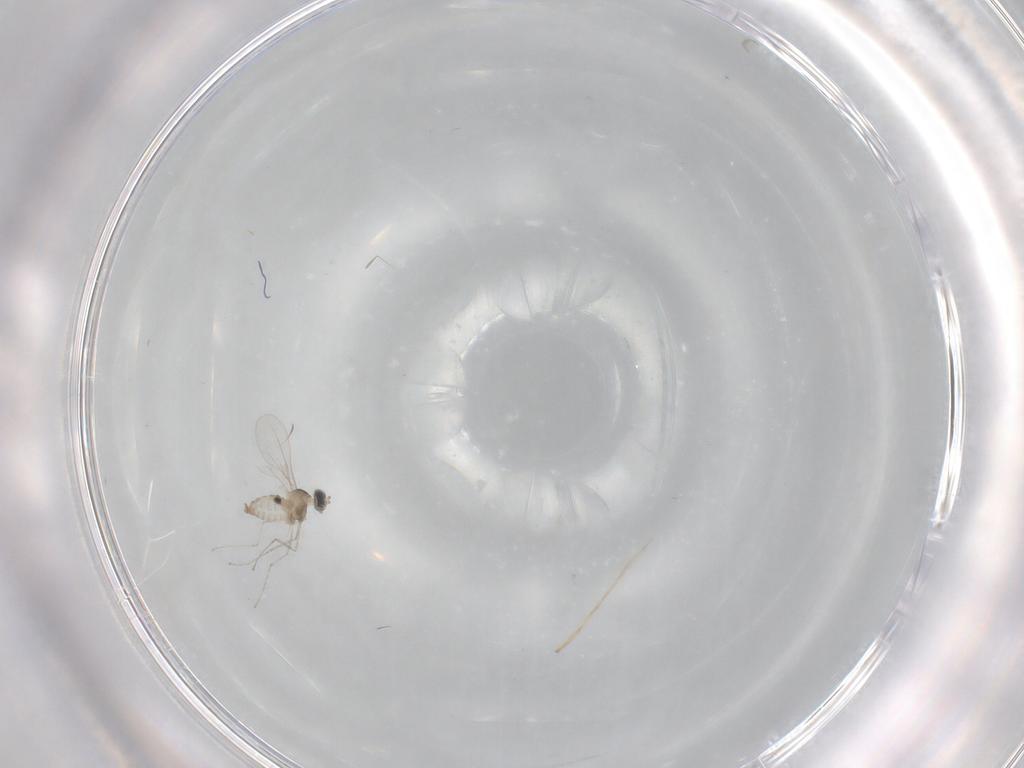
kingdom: Animalia
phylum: Arthropoda
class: Insecta
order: Diptera
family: Cecidomyiidae
